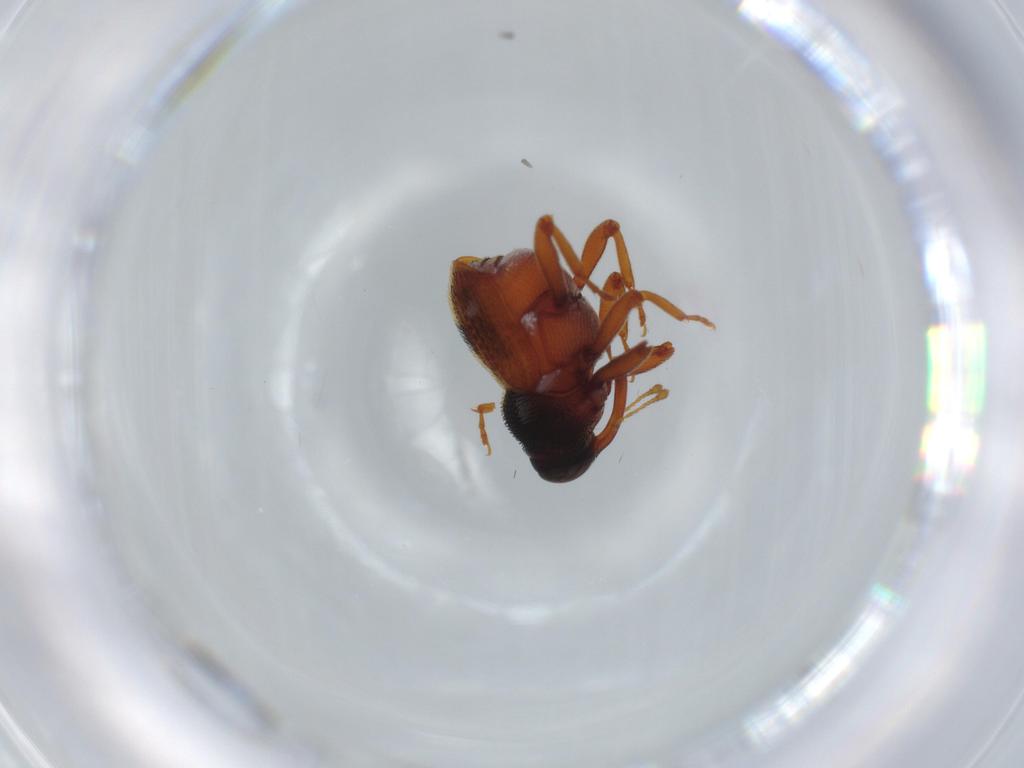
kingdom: Animalia
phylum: Arthropoda
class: Insecta
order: Coleoptera
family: Curculionidae
